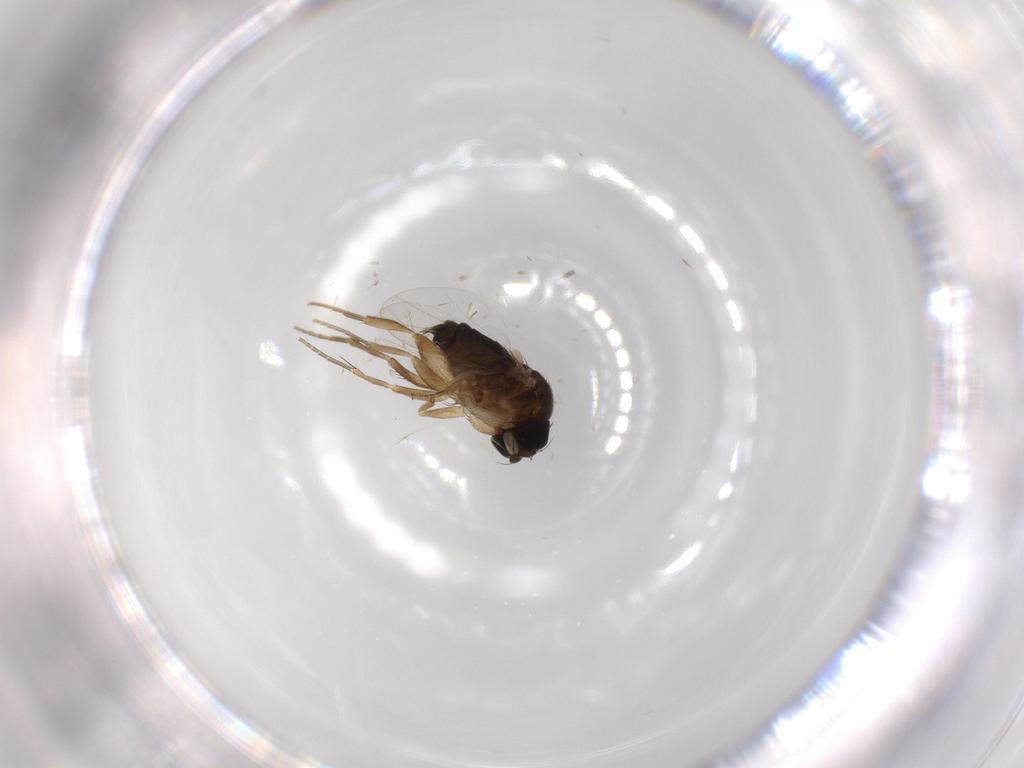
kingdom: Animalia
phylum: Arthropoda
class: Insecta
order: Diptera
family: Phoridae
